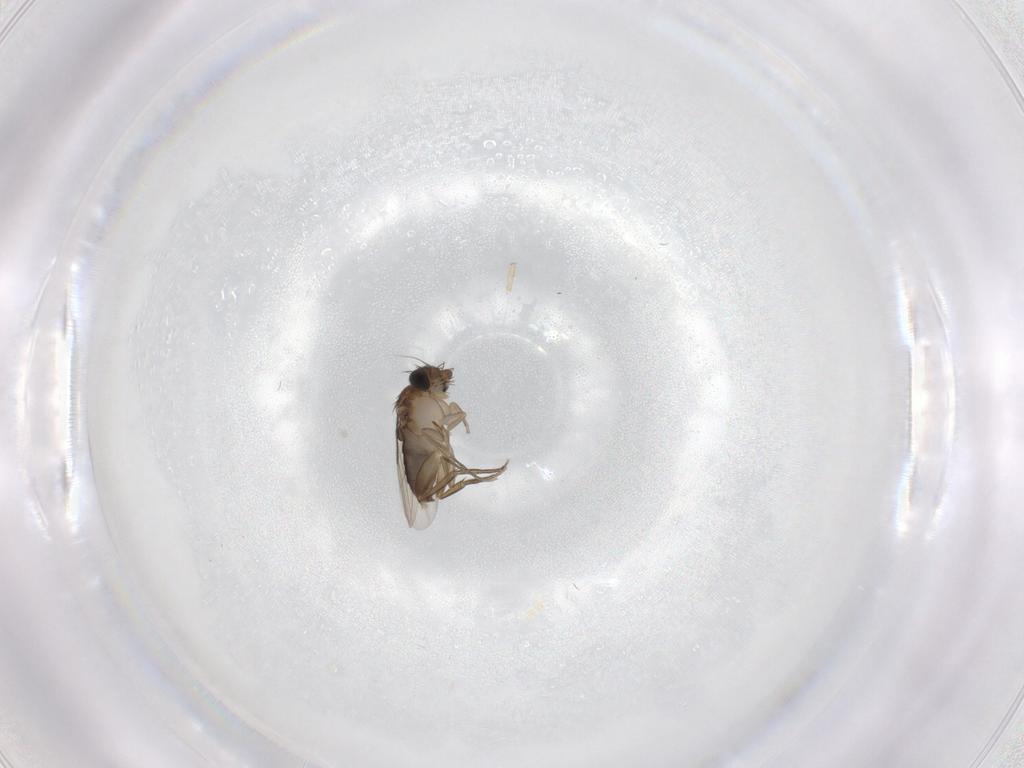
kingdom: Animalia
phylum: Arthropoda
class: Insecta
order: Diptera
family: Phoridae
